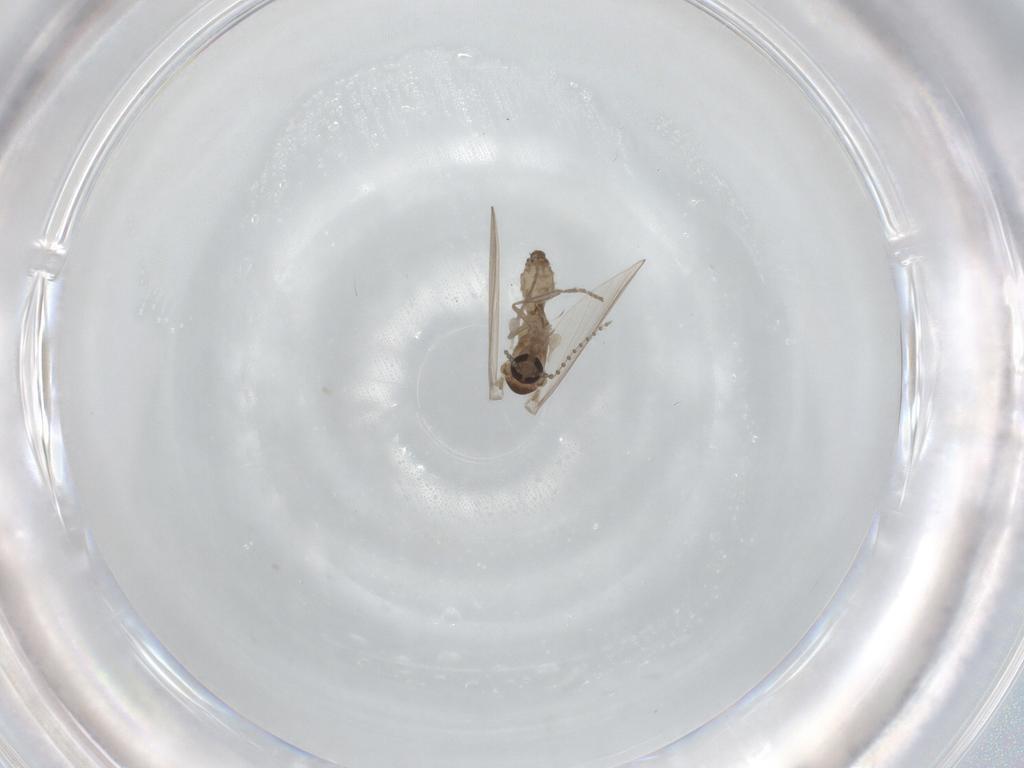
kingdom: Animalia
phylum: Arthropoda
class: Insecta
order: Diptera
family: Psychodidae
